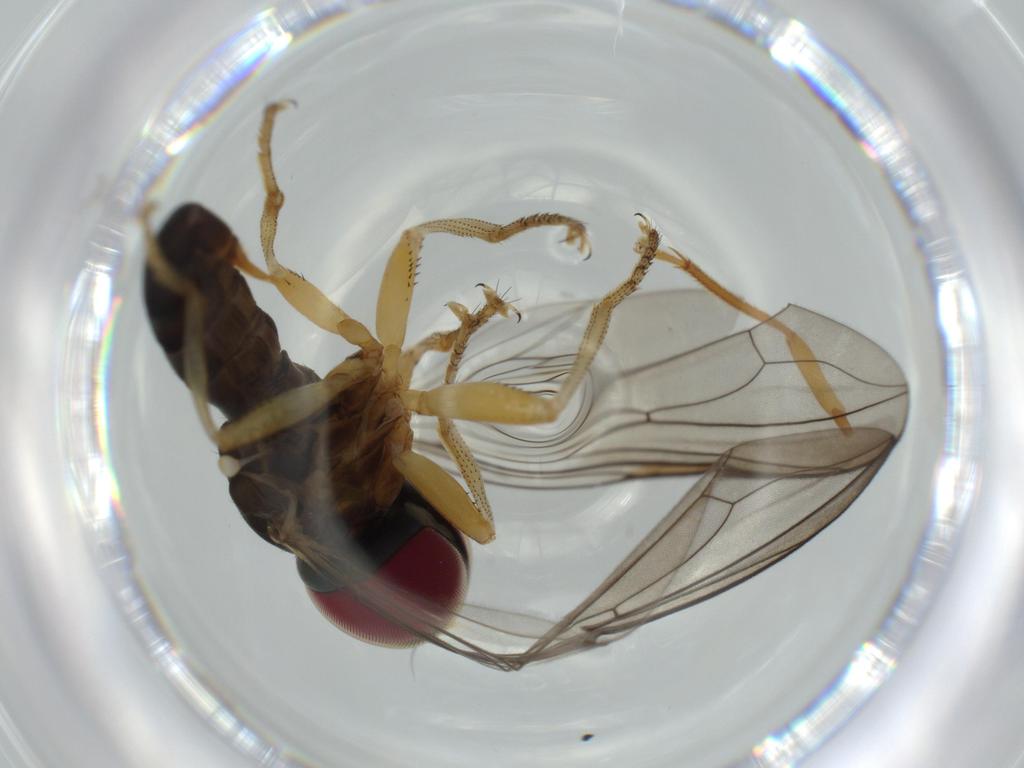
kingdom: Animalia
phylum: Arthropoda
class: Insecta
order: Diptera
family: Pipunculidae
